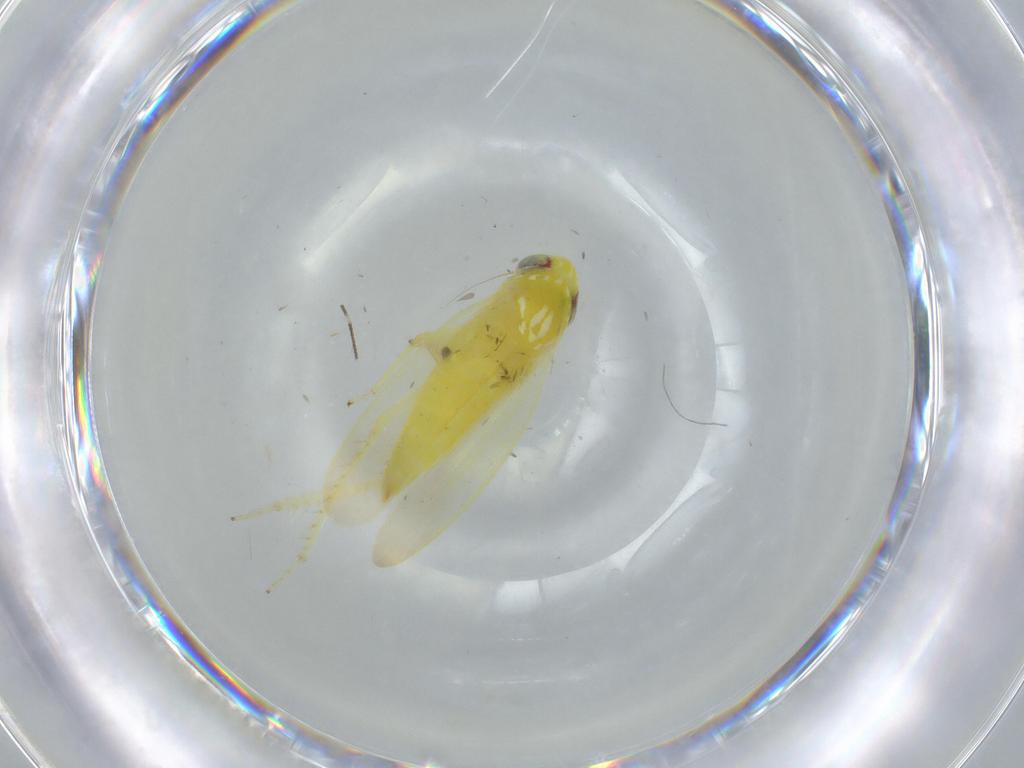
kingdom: Animalia
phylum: Arthropoda
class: Insecta
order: Hemiptera
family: Cicadellidae
